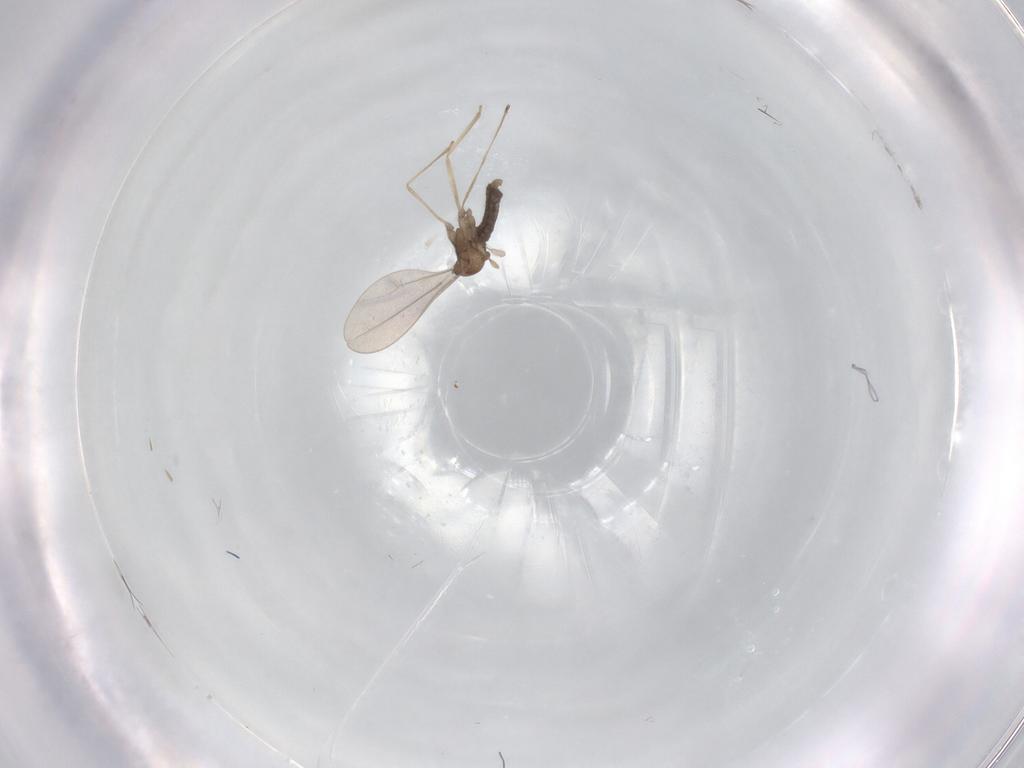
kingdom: Animalia
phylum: Arthropoda
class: Insecta
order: Diptera
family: Cecidomyiidae
